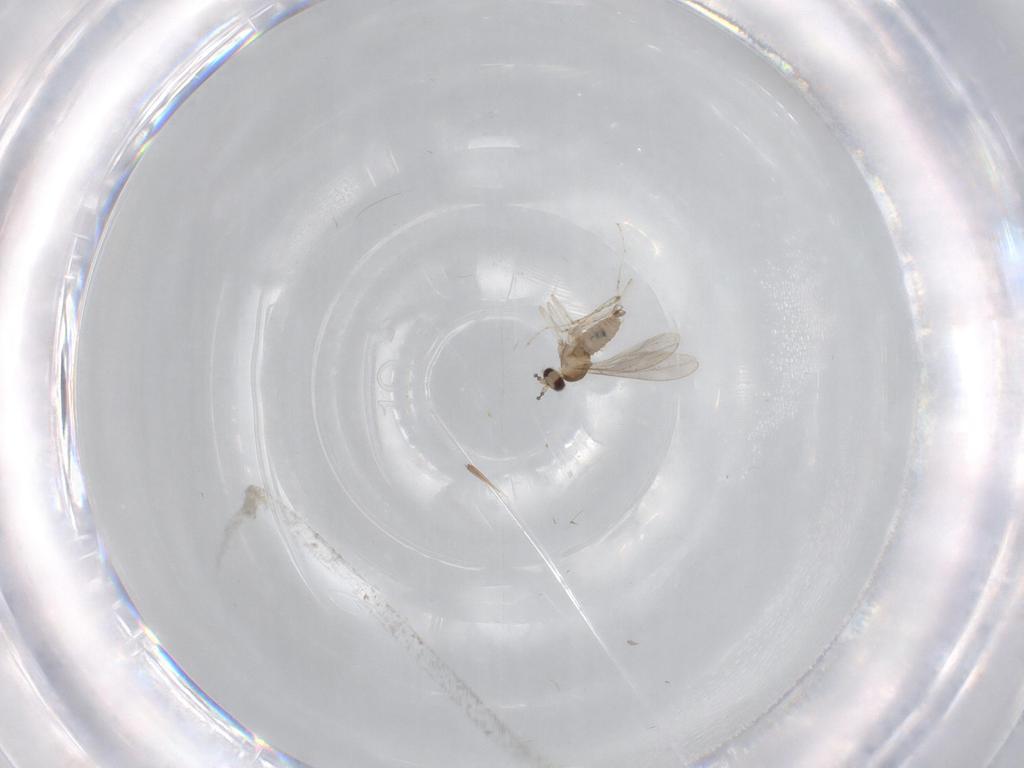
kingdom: Animalia
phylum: Arthropoda
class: Insecta
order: Diptera
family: Cecidomyiidae
